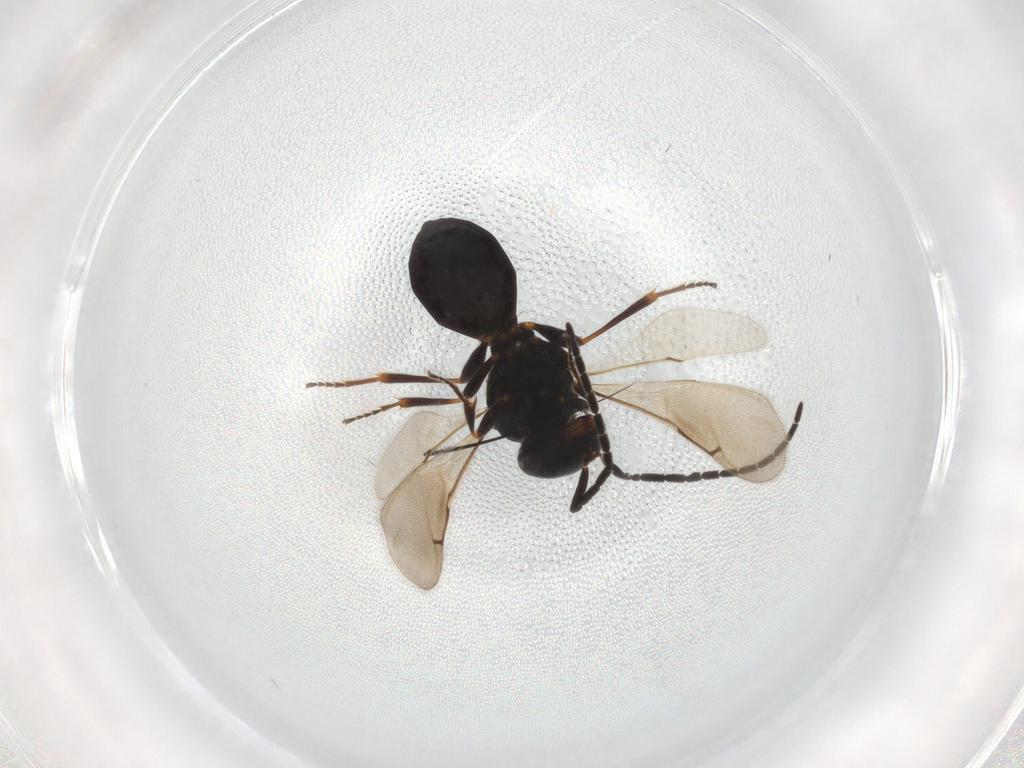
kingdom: Animalia
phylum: Arthropoda
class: Insecta
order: Hymenoptera
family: Scelionidae
